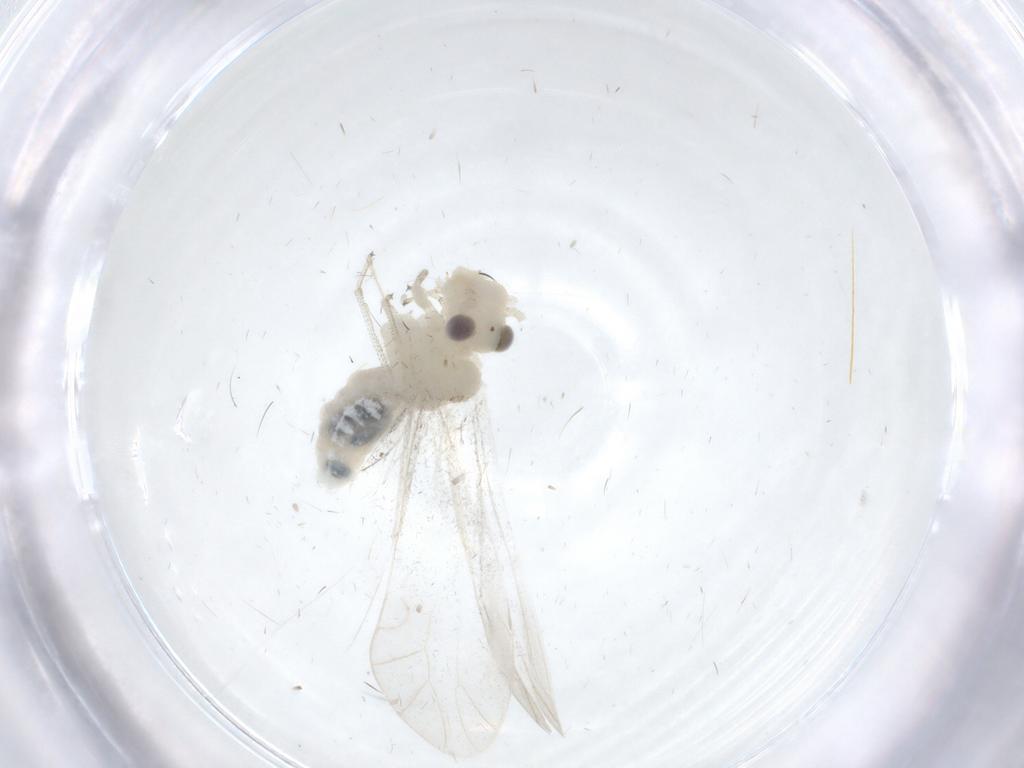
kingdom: Animalia
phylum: Arthropoda
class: Insecta
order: Psocodea
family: Caeciliusidae
